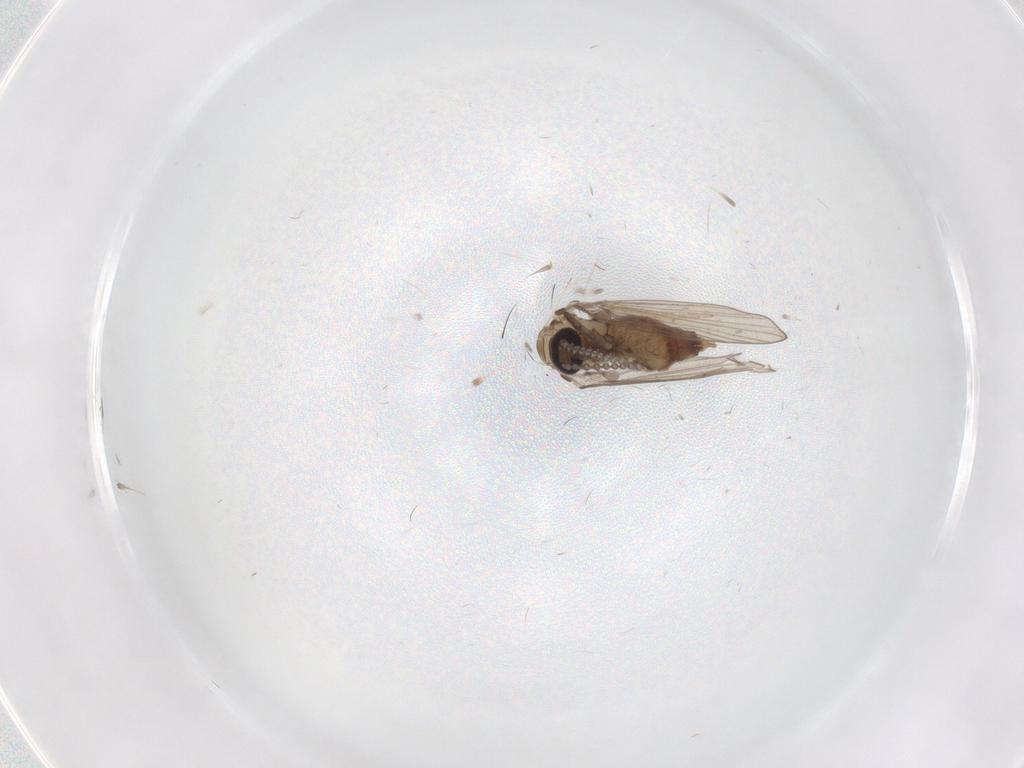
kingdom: Animalia
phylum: Arthropoda
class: Insecta
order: Diptera
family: Psychodidae
